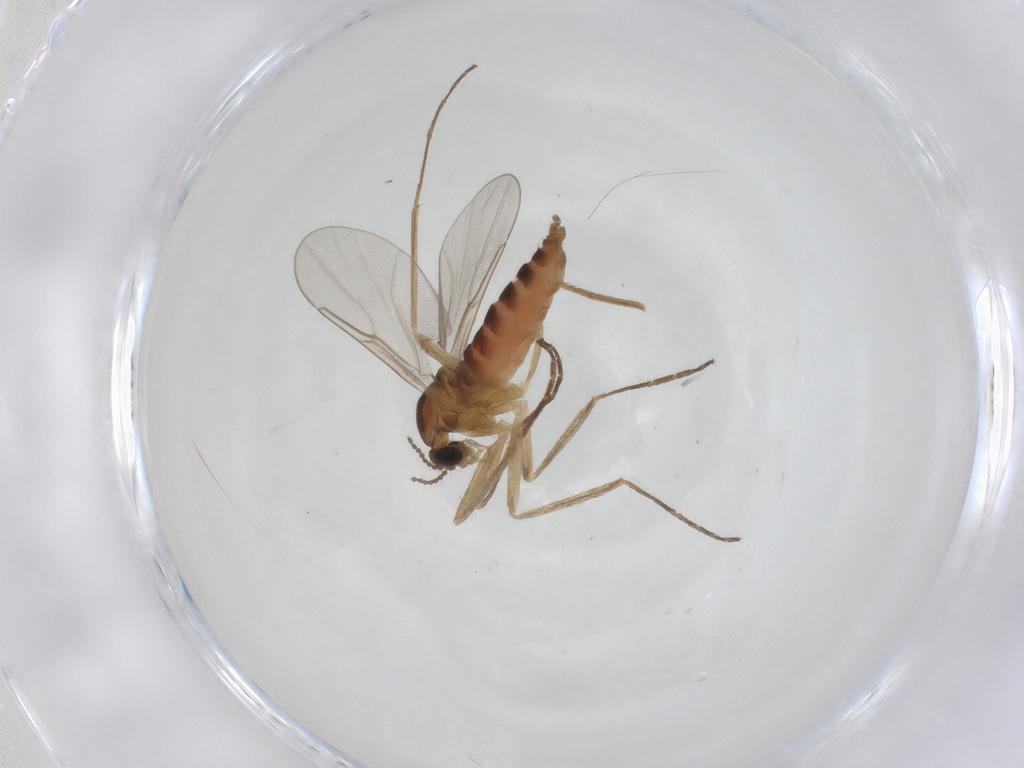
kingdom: Animalia
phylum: Arthropoda
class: Insecta
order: Diptera
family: Cecidomyiidae
